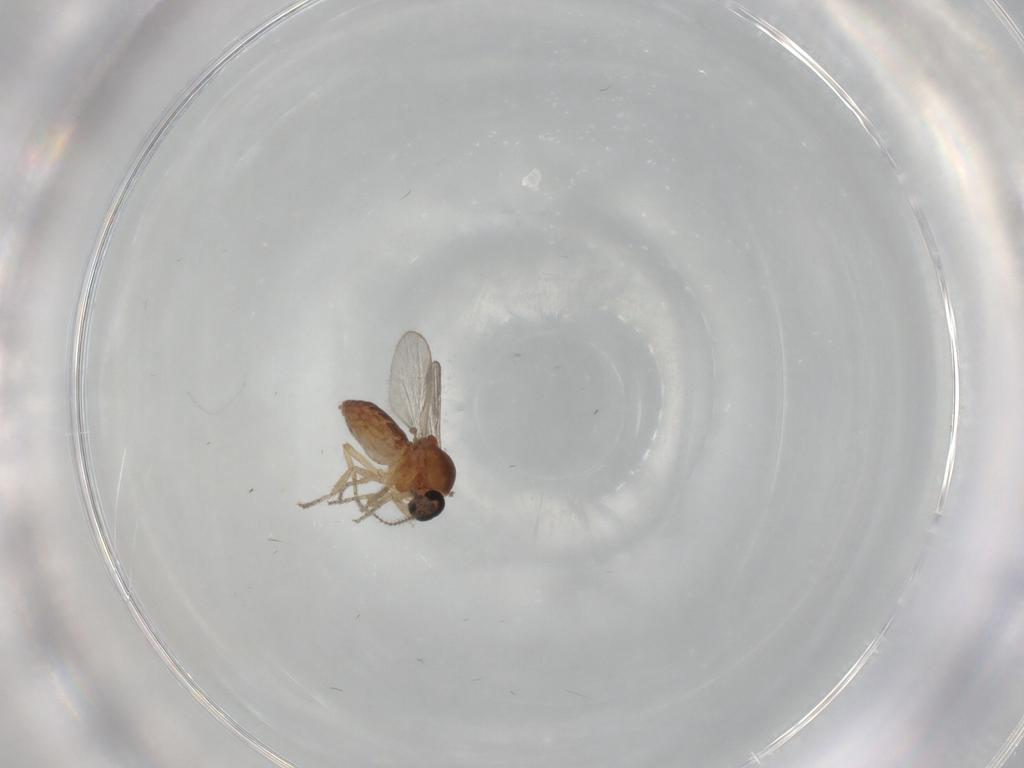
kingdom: Animalia
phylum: Arthropoda
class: Insecta
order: Diptera
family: Ceratopogonidae
